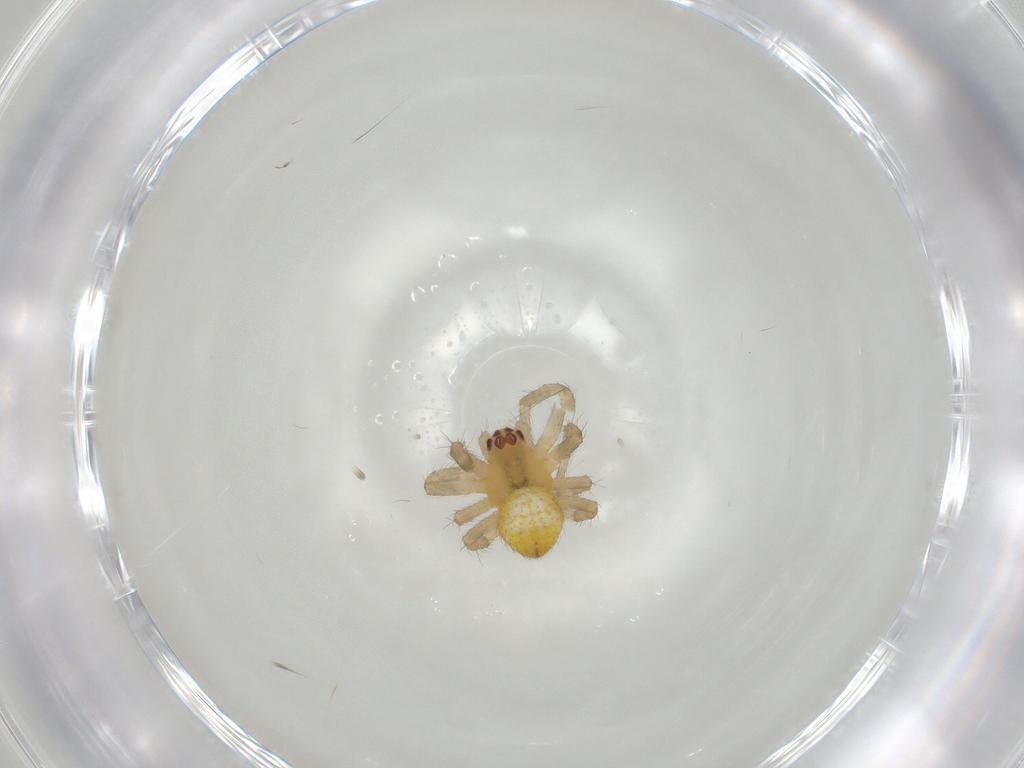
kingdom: Animalia
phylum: Arthropoda
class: Arachnida
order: Araneae
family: Araneidae
